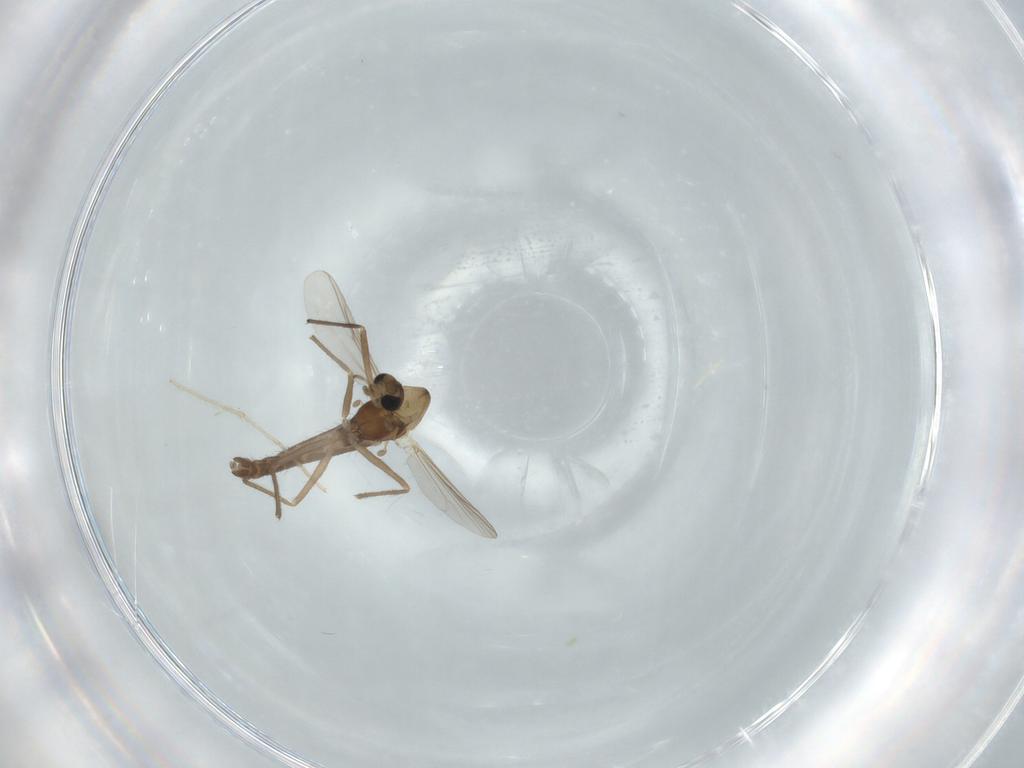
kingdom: Animalia
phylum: Arthropoda
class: Insecta
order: Diptera
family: Chironomidae
